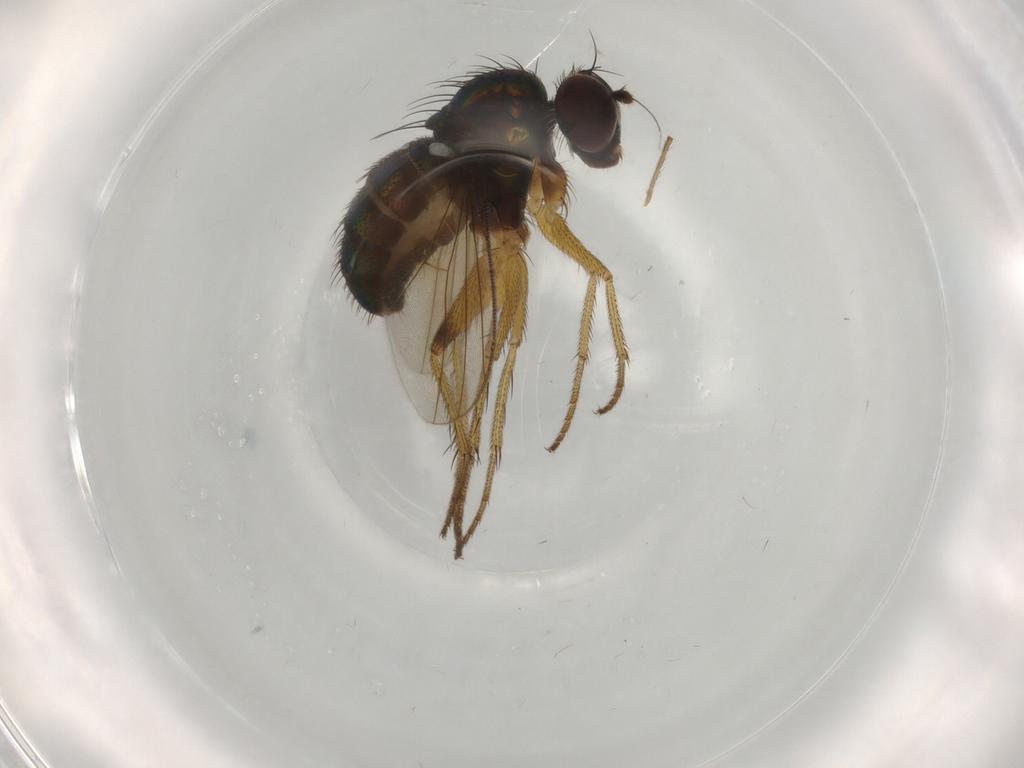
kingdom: Animalia
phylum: Arthropoda
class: Insecta
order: Diptera
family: Dolichopodidae
